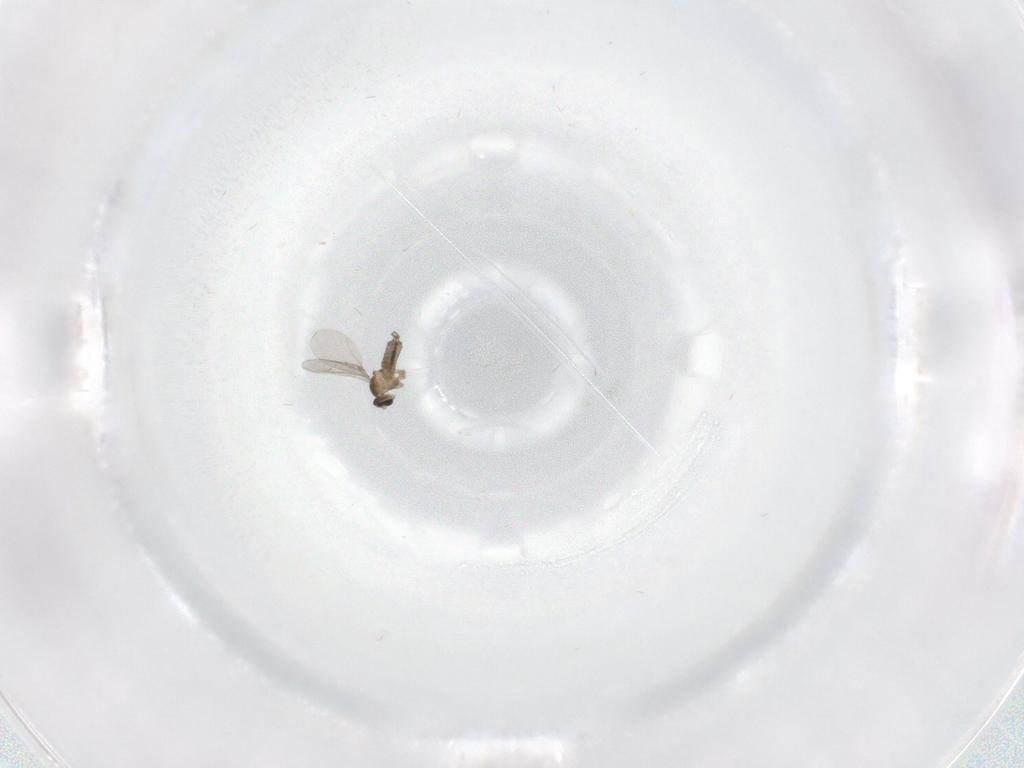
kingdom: Animalia
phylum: Arthropoda
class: Insecta
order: Diptera
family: Cecidomyiidae
